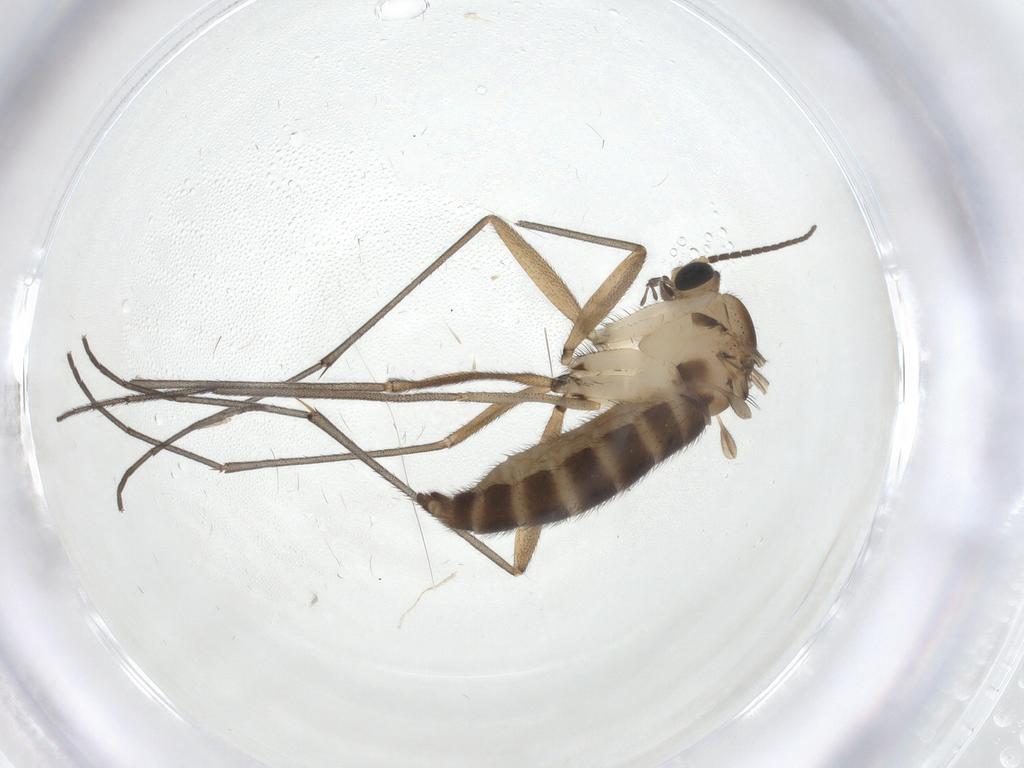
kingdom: Animalia
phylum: Arthropoda
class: Insecta
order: Diptera
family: Sciaridae
